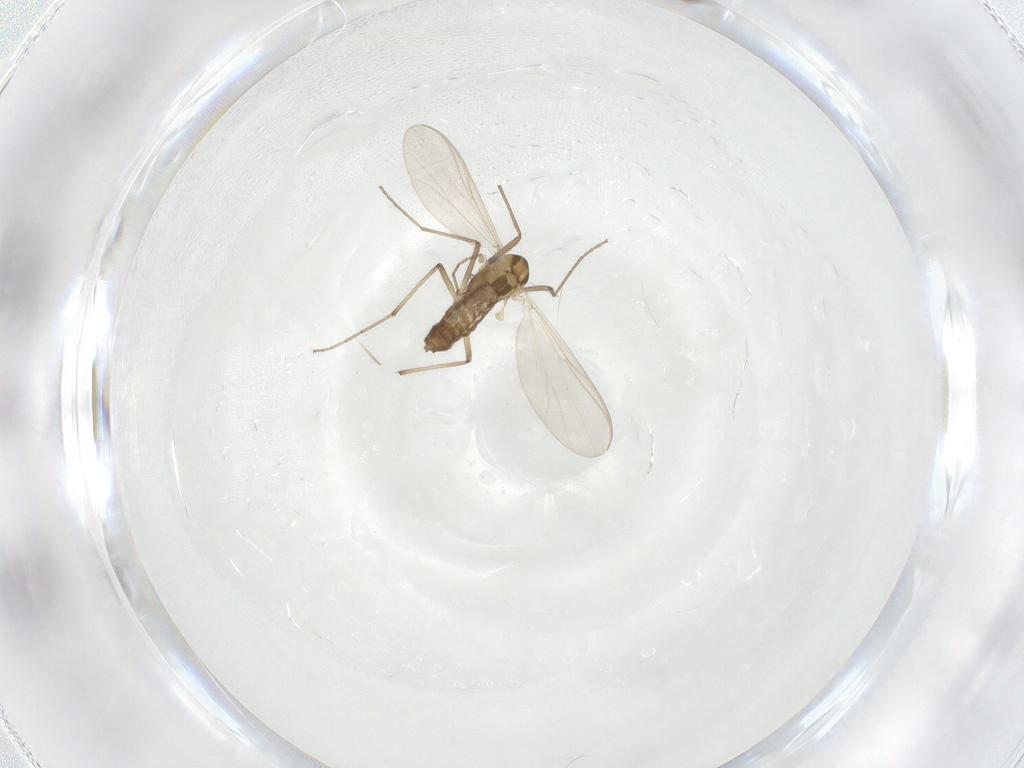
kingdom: Animalia
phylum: Arthropoda
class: Insecta
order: Diptera
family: Chironomidae
